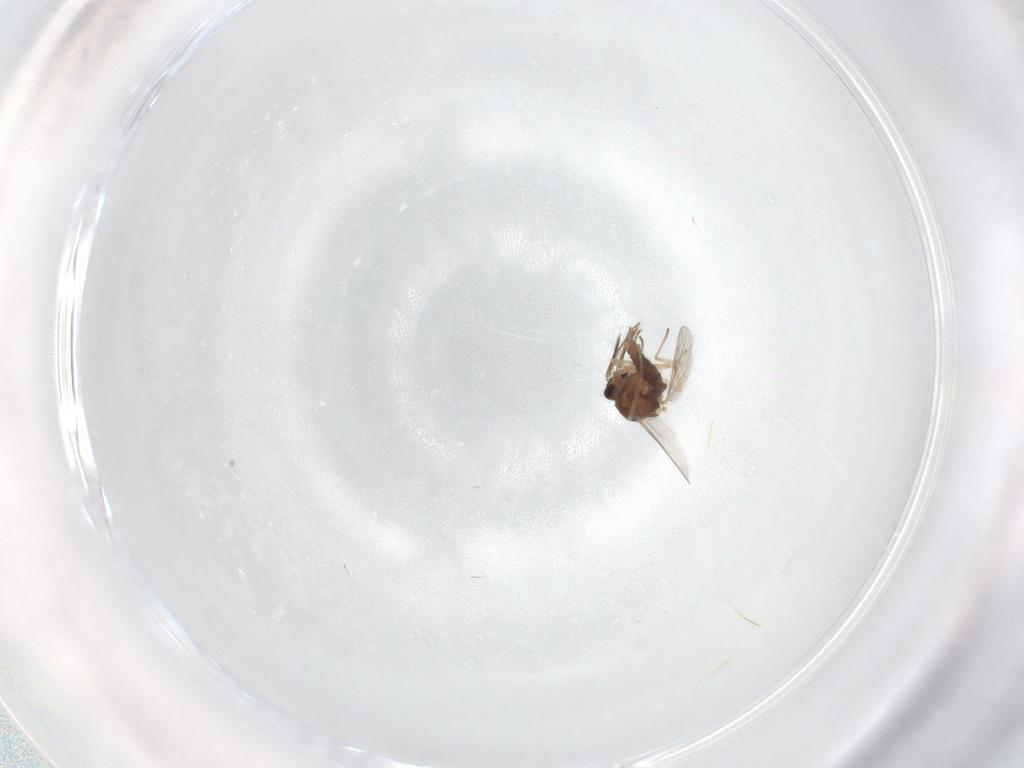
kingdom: Animalia
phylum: Arthropoda
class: Insecta
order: Diptera
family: Ceratopogonidae
